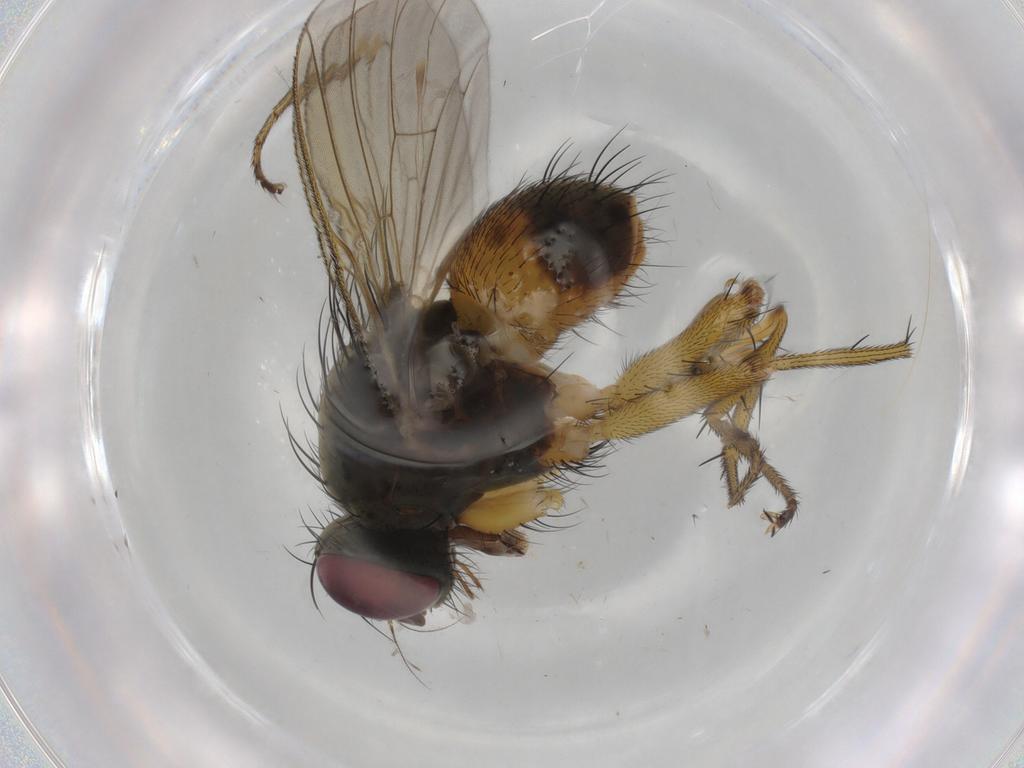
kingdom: Animalia
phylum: Arthropoda
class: Insecta
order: Diptera
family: Muscidae
